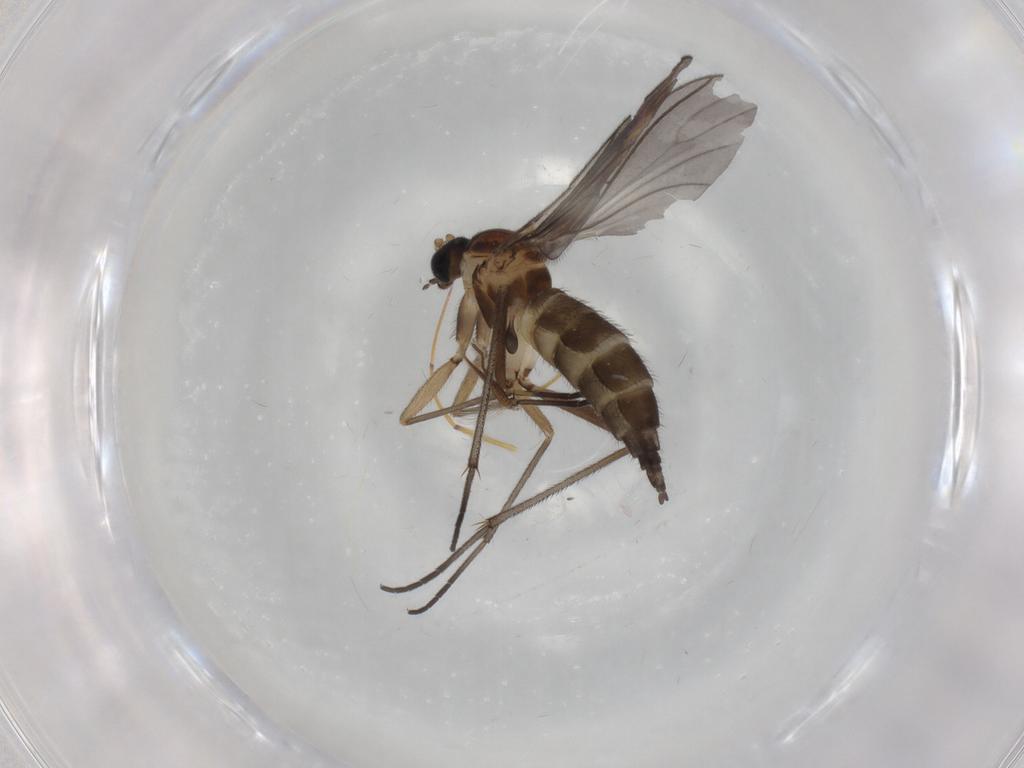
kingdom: Animalia
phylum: Arthropoda
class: Insecta
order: Diptera
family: Sciaridae
